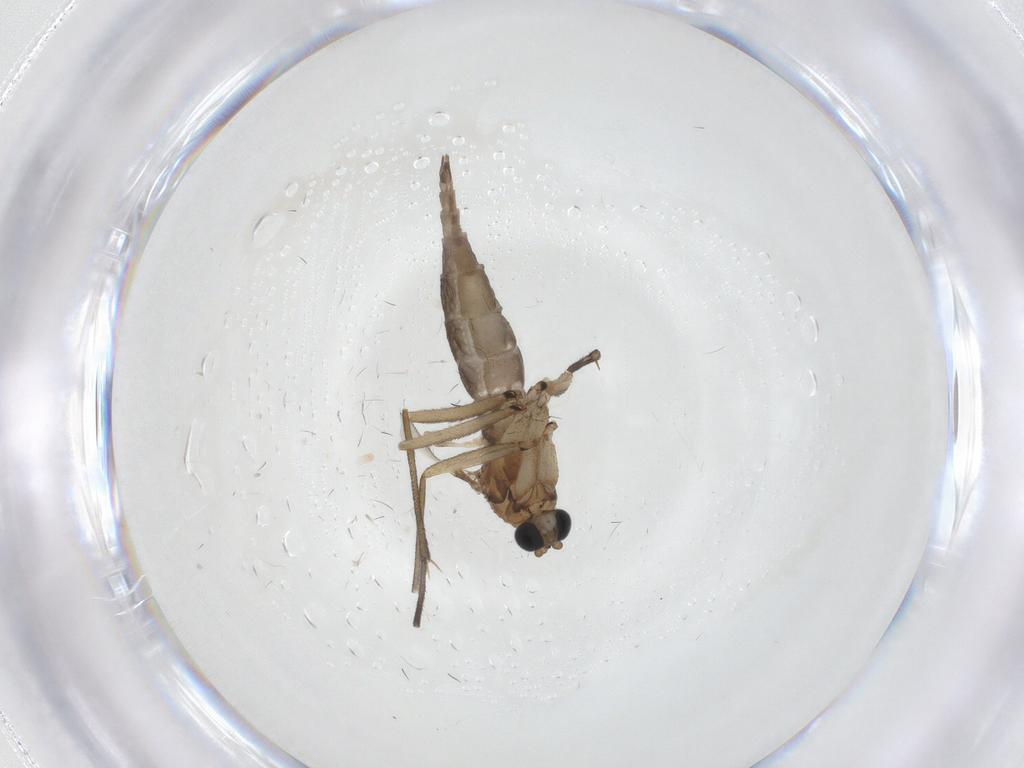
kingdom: Animalia
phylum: Arthropoda
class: Insecta
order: Diptera
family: Sciaridae
